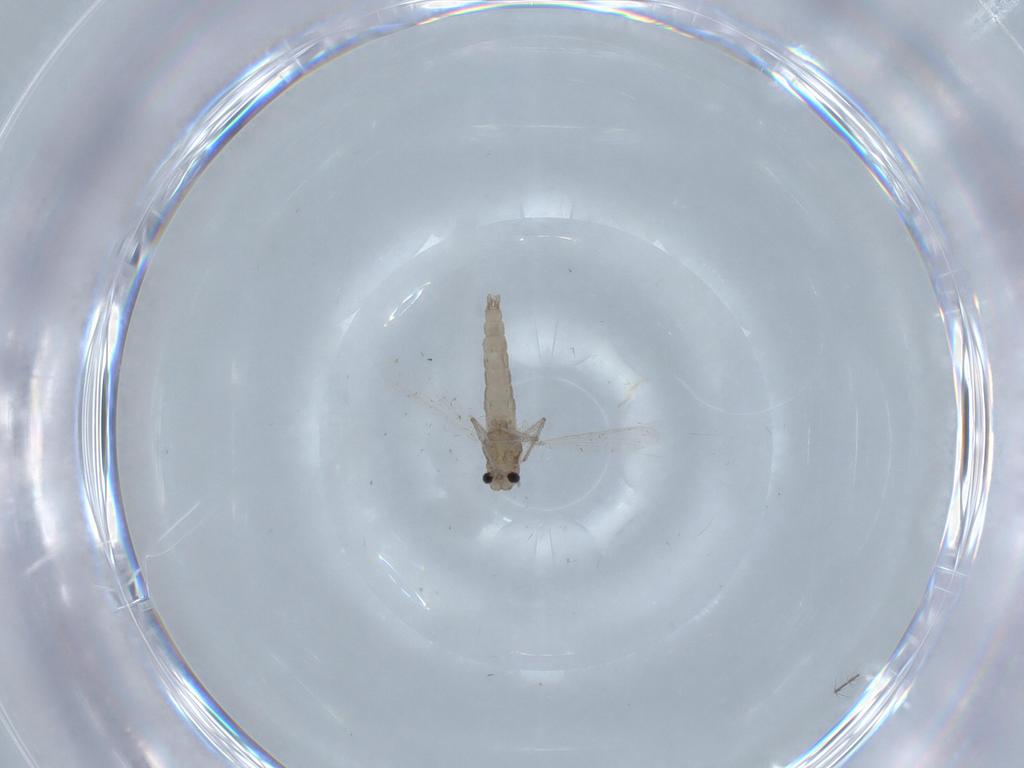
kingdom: Animalia
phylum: Arthropoda
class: Insecta
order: Diptera
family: Chironomidae
